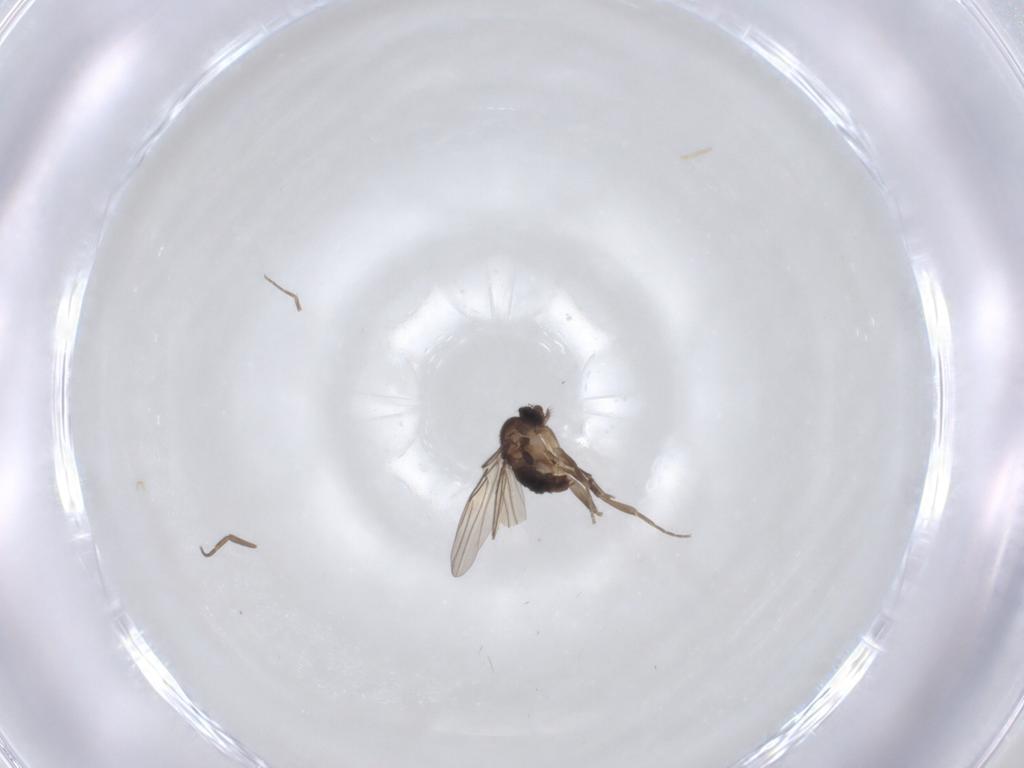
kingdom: Animalia
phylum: Arthropoda
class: Insecta
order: Diptera
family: Phoridae
